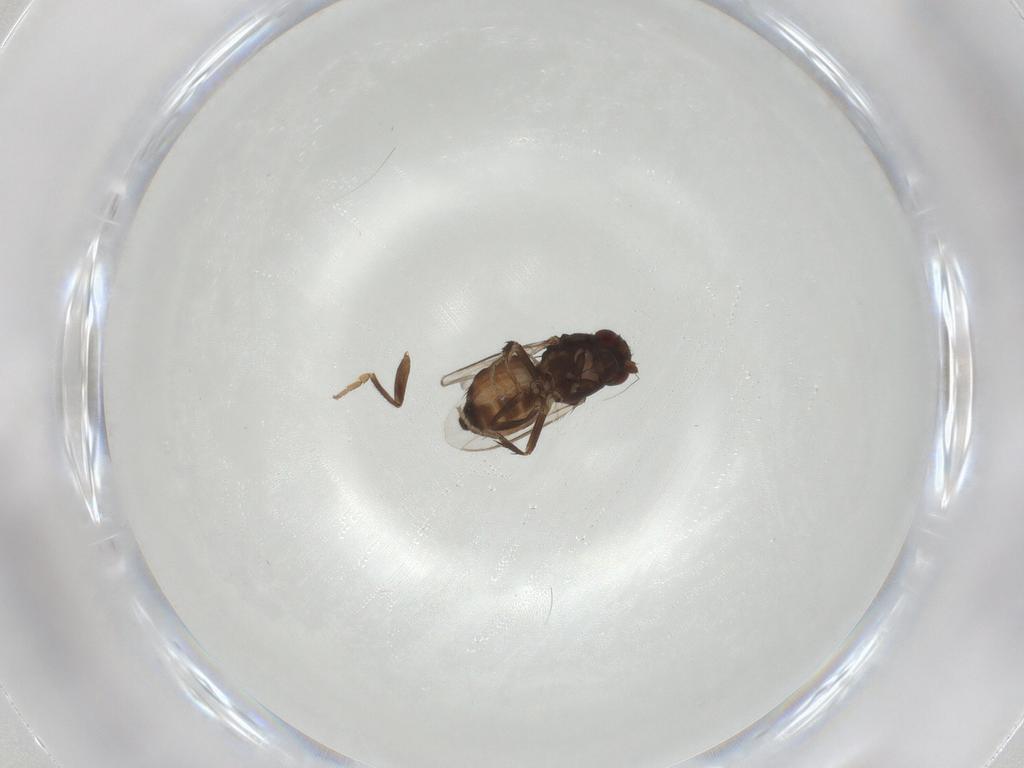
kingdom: Animalia
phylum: Arthropoda
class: Insecta
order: Diptera
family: Sphaeroceridae
